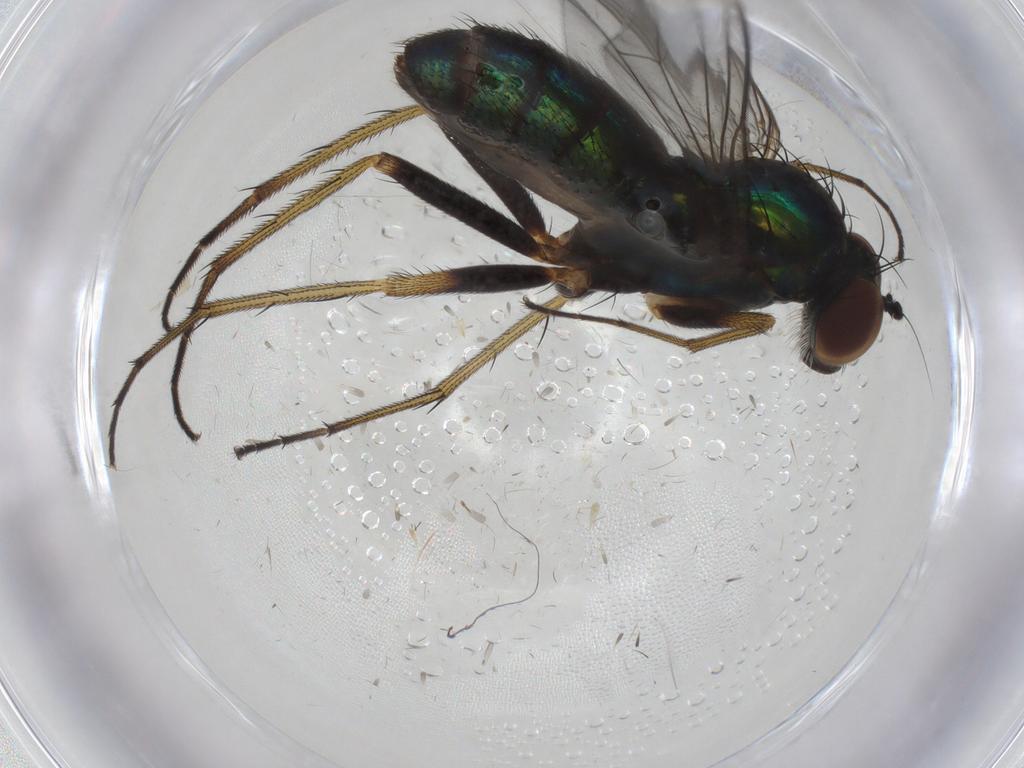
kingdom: Animalia
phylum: Arthropoda
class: Insecta
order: Diptera
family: Dolichopodidae
